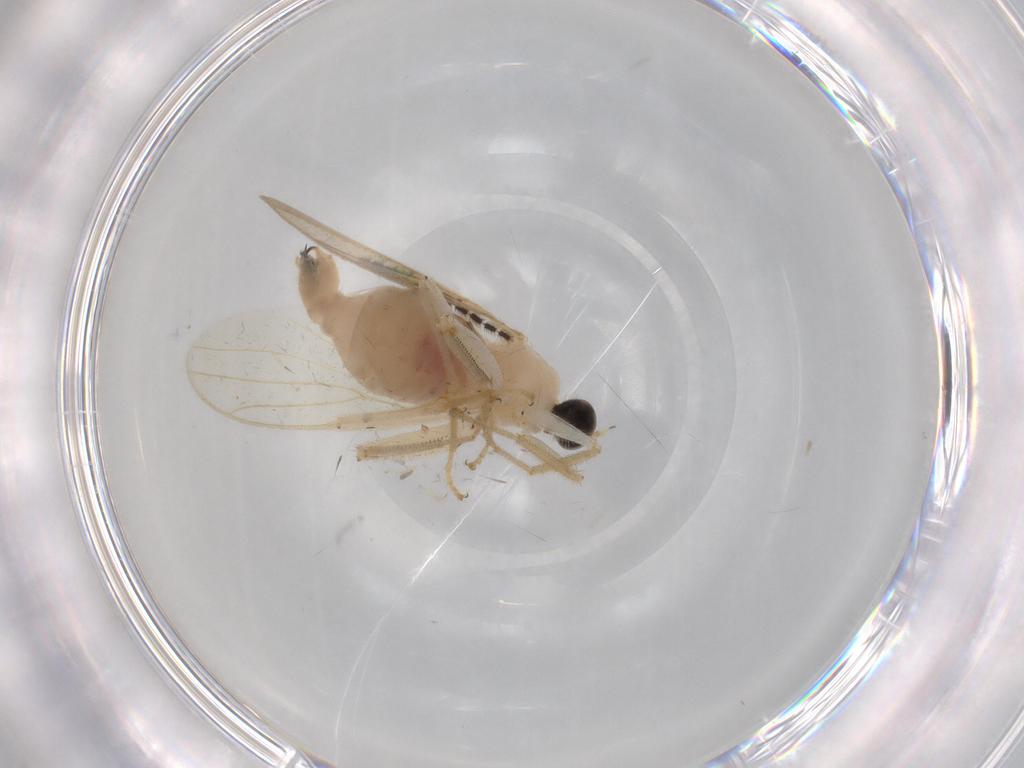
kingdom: Animalia
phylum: Arthropoda
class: Insecta
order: Diptera
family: Hybotidae
